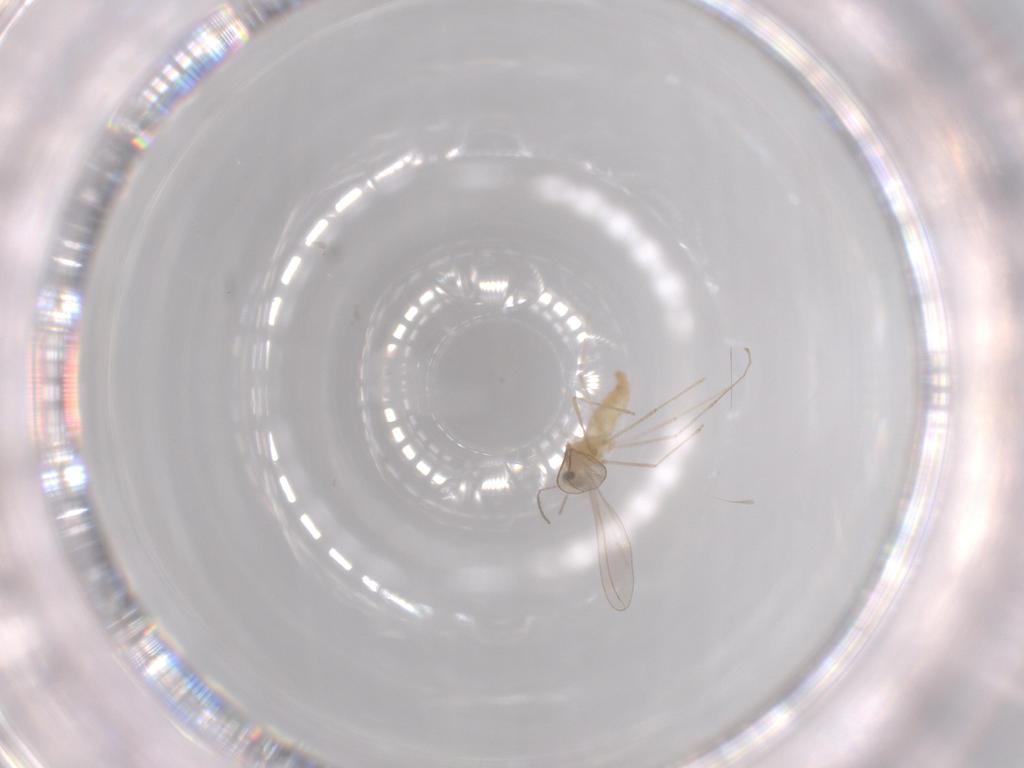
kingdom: Animalia
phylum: Arthropoda
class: Insecta
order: Diptera
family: Cecidomyiidae
